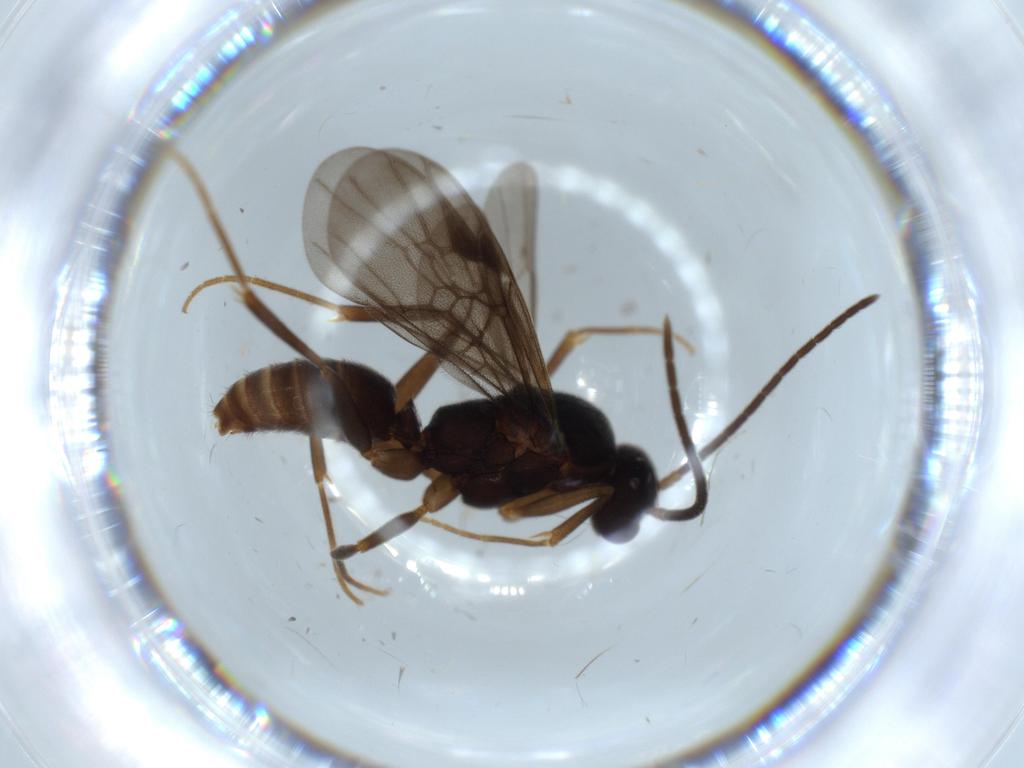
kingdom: Animalia
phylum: Arthropoda
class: Insecta
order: Hymenoptera
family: Formicidae
